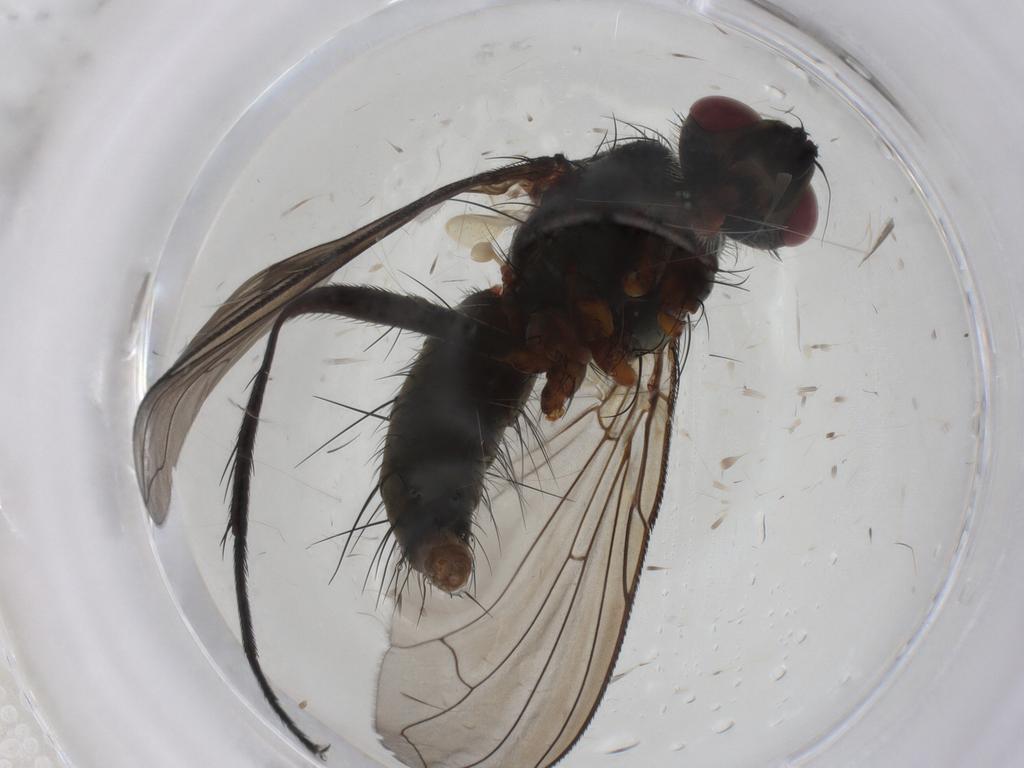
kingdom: Animalia
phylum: Arthropoda
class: Insecta
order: Diptera
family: Tachinidae
